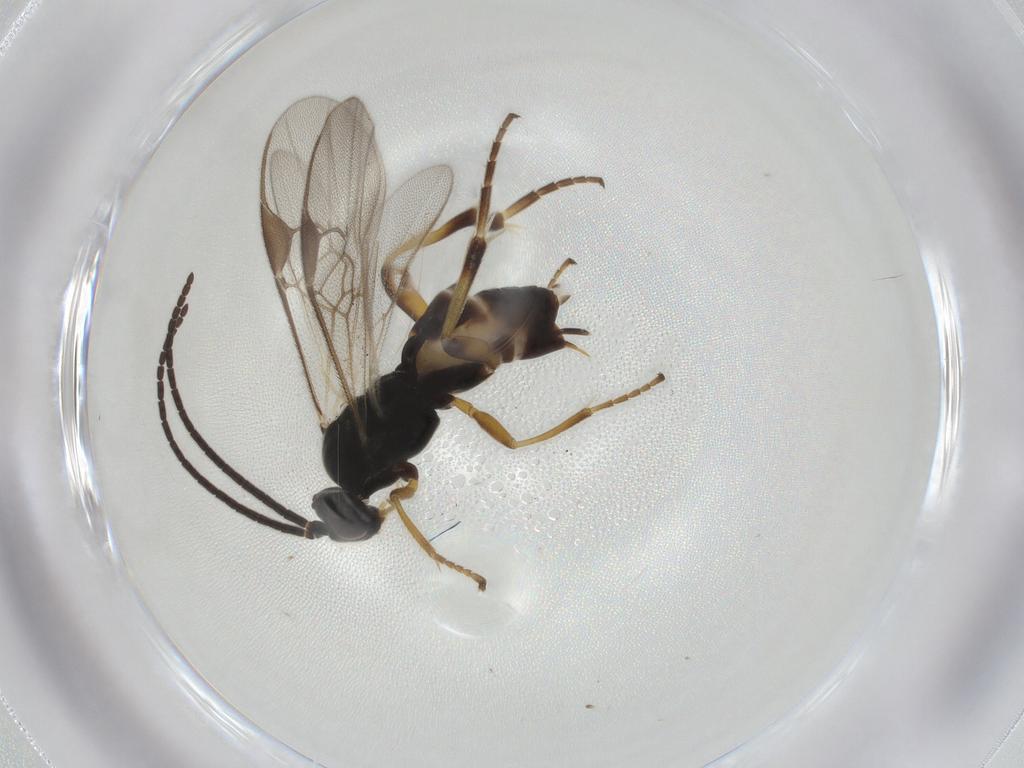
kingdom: Animalia
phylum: Arthropoda
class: Insecta
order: Hymenoptera
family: Braconidae
